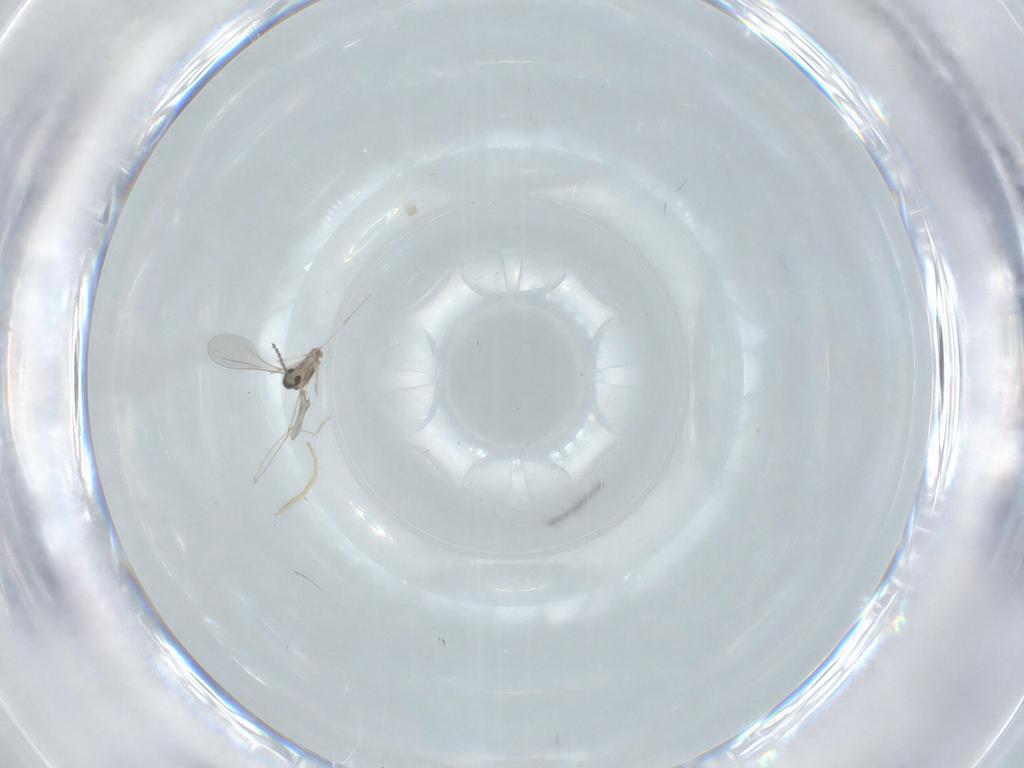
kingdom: Animalia
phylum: Arthropoda
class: Insecta
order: Diptera
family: Phoridae
